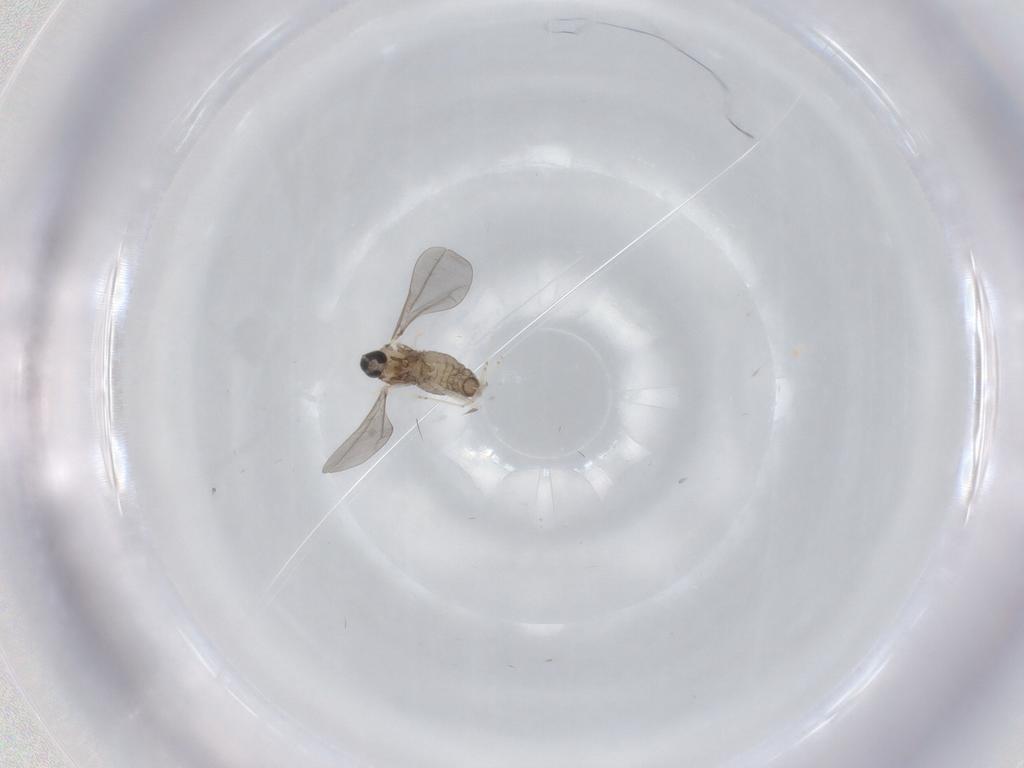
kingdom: Animalia
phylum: Arthropoda
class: Insecta
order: Diptera
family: Cecidomyiidae
